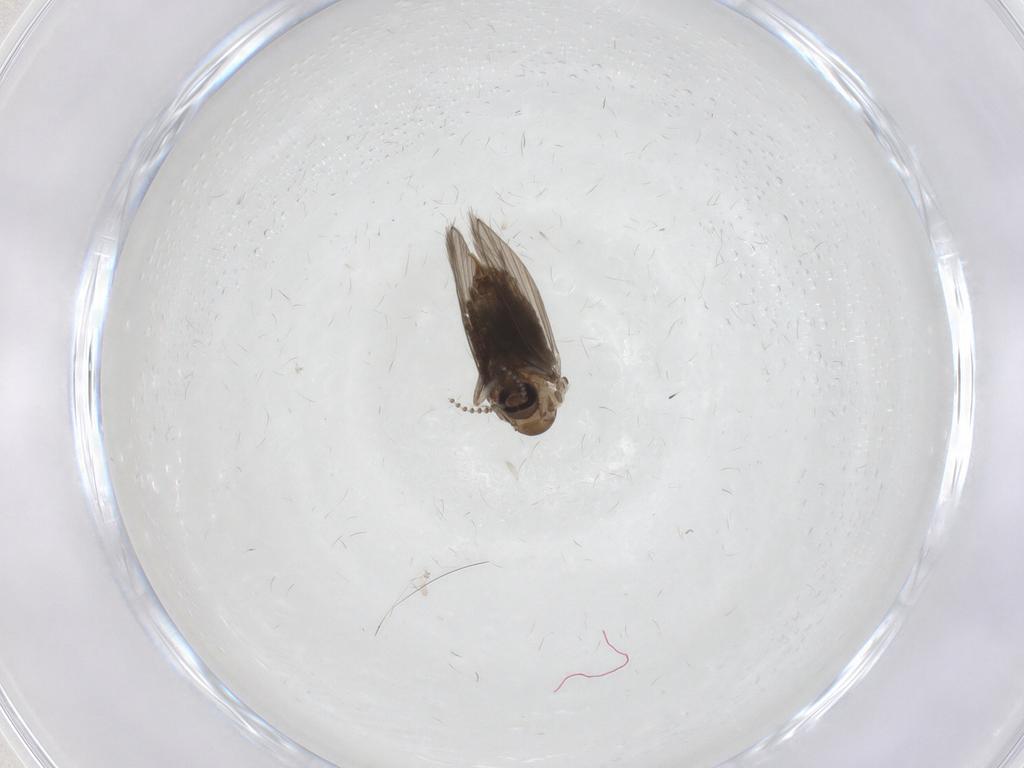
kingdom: Animalia
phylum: Arthropoda
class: Insecta
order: Diptera
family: Psychodidae
